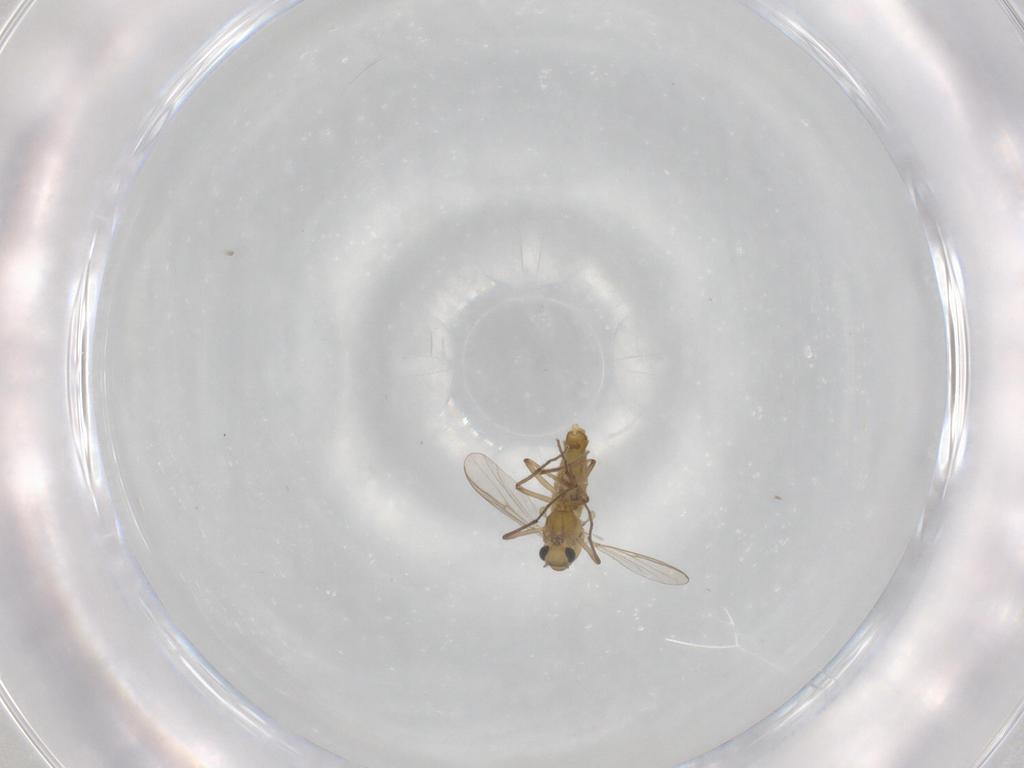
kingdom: Animalia
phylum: Arthropoda
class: Insecta
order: Diptera
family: Chironomidae
